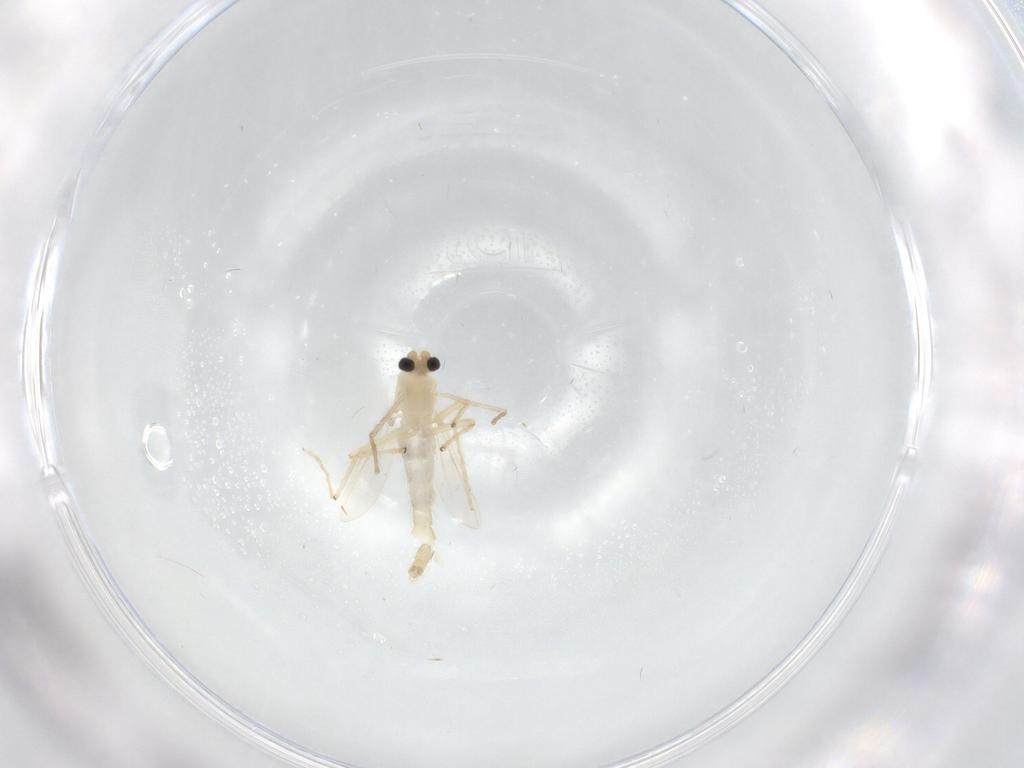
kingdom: Animalia
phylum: Arthropoda
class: Insecta
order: Diptera
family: Chironomidae
